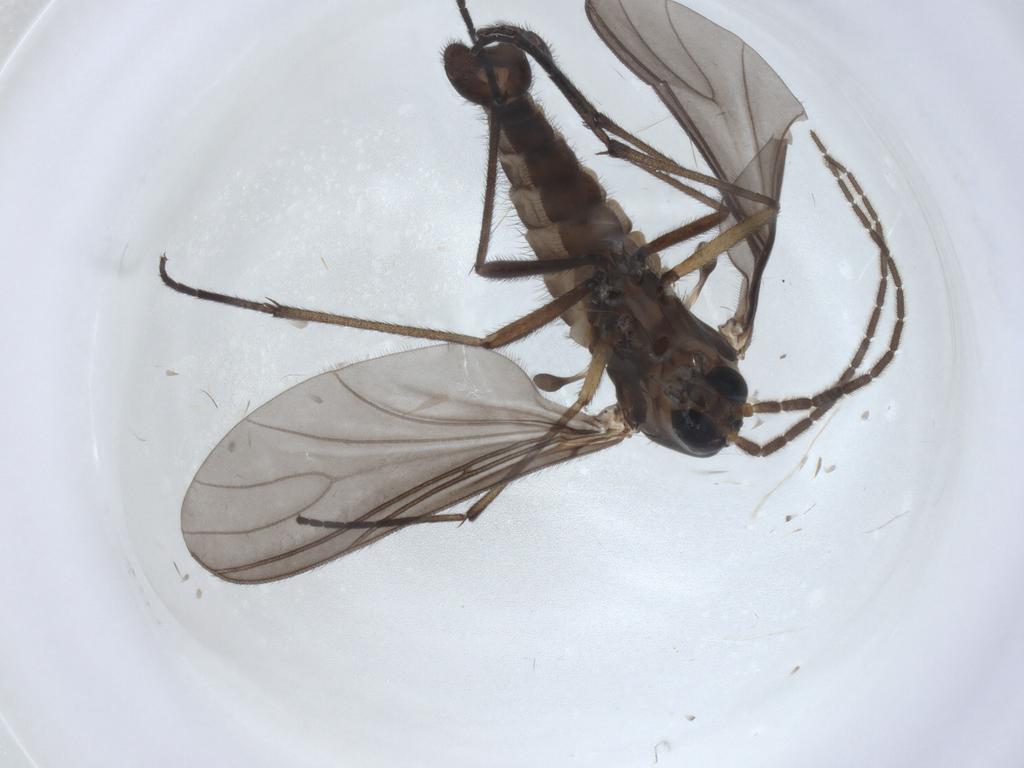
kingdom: Animalia
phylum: Arthropoda
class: Insecta
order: Diptera
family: Sciaridae
